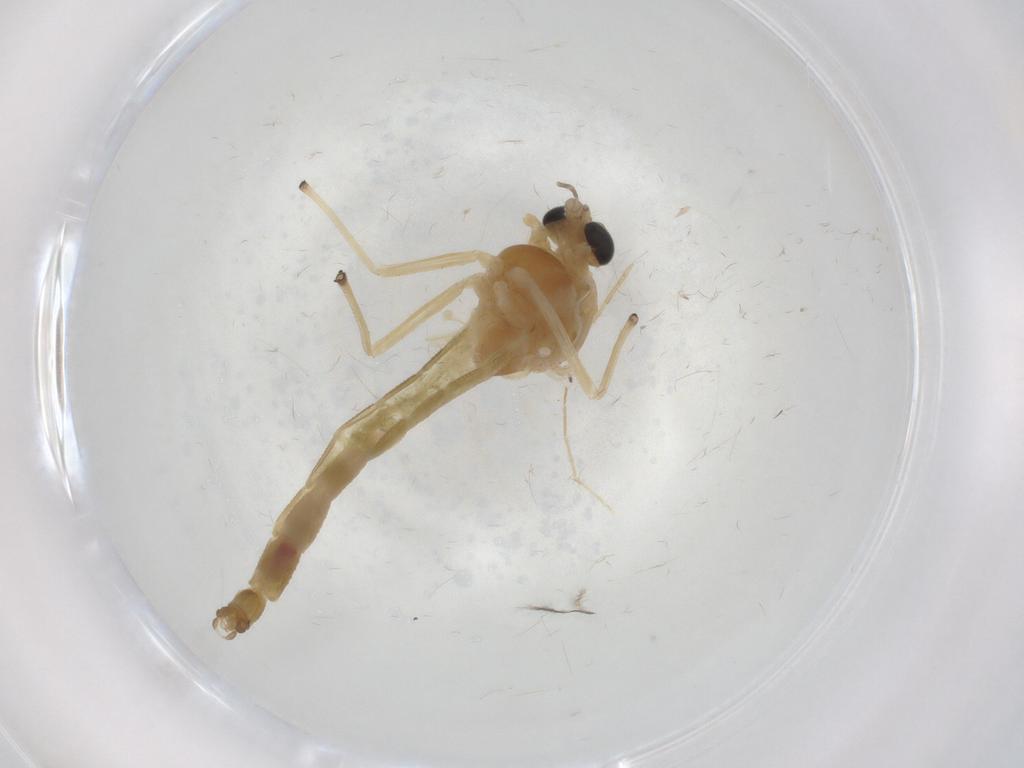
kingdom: Animalia
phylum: Arthropoda
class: Insecta
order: Diptera
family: Chironomidae
